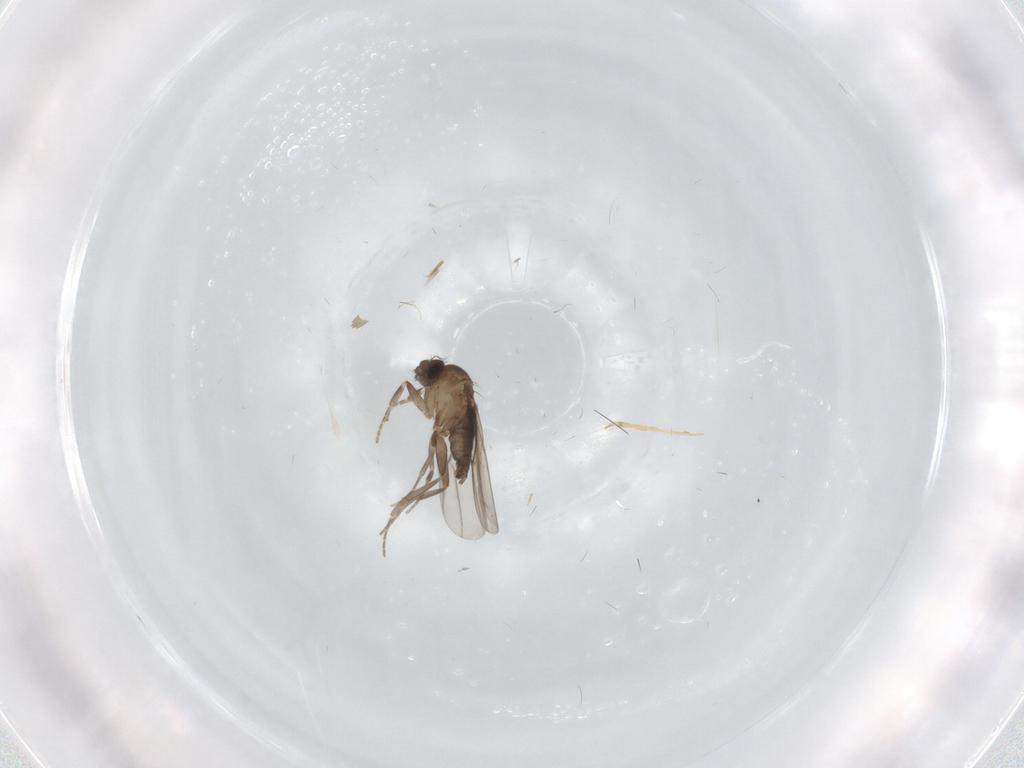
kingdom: Animalia
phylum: Arthropoda
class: Insecta
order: Diptera
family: Phoridae
